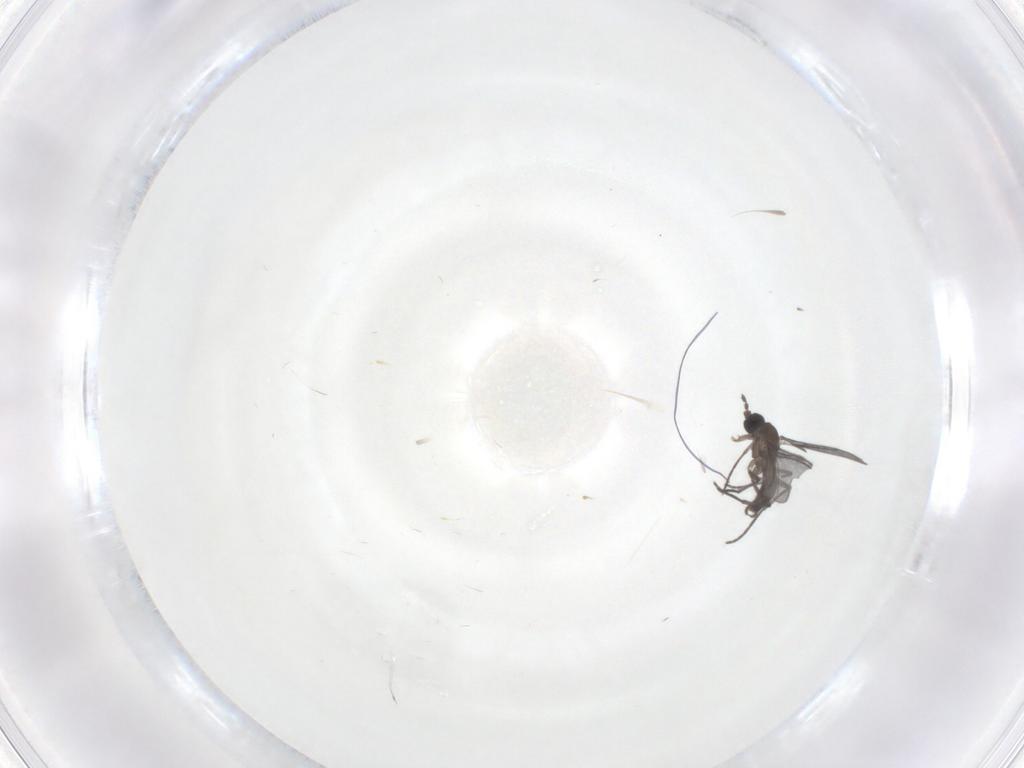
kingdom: Animalia
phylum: Arthropoda
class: Insecta
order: Diptera
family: Sciaridae
